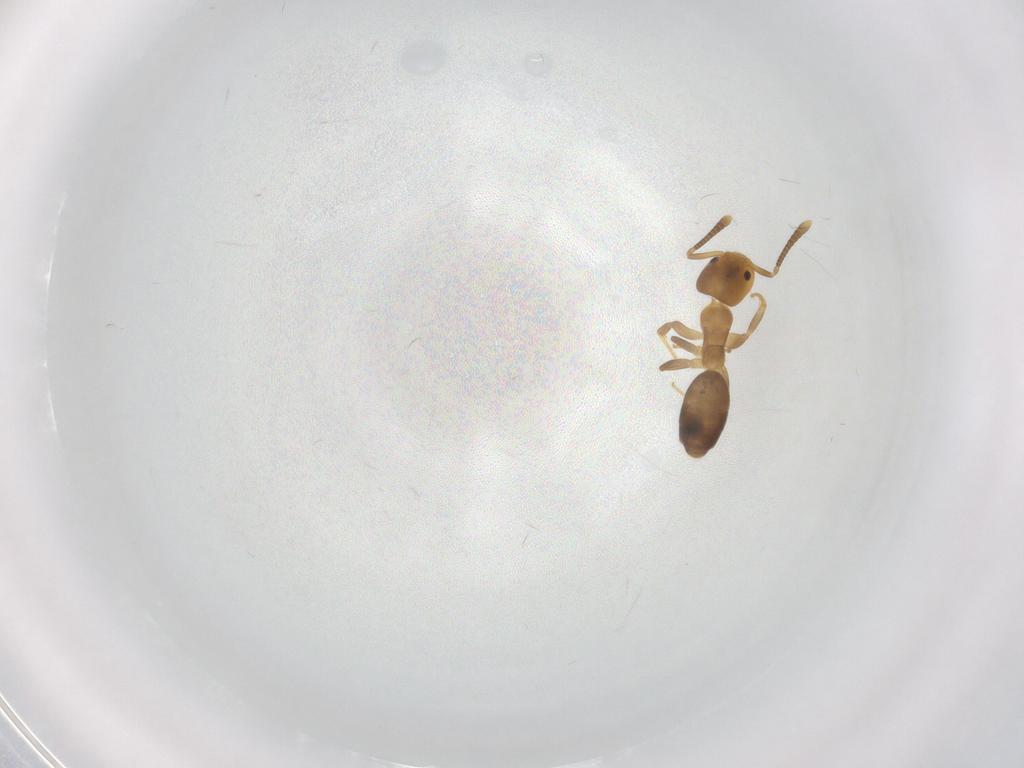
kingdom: Animalia
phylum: Arthropoda
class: Insecta
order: Hymenoptera
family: Formicidae
